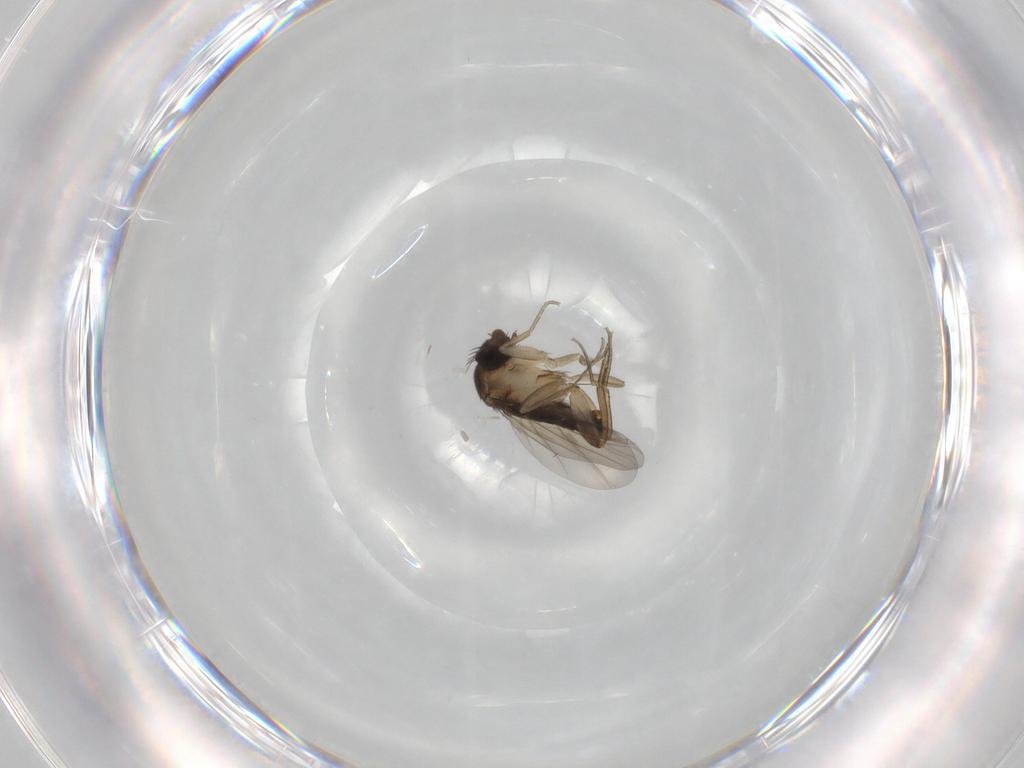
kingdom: Animalia
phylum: Arthropoda
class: Insecta
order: Diptera
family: Phoridae
